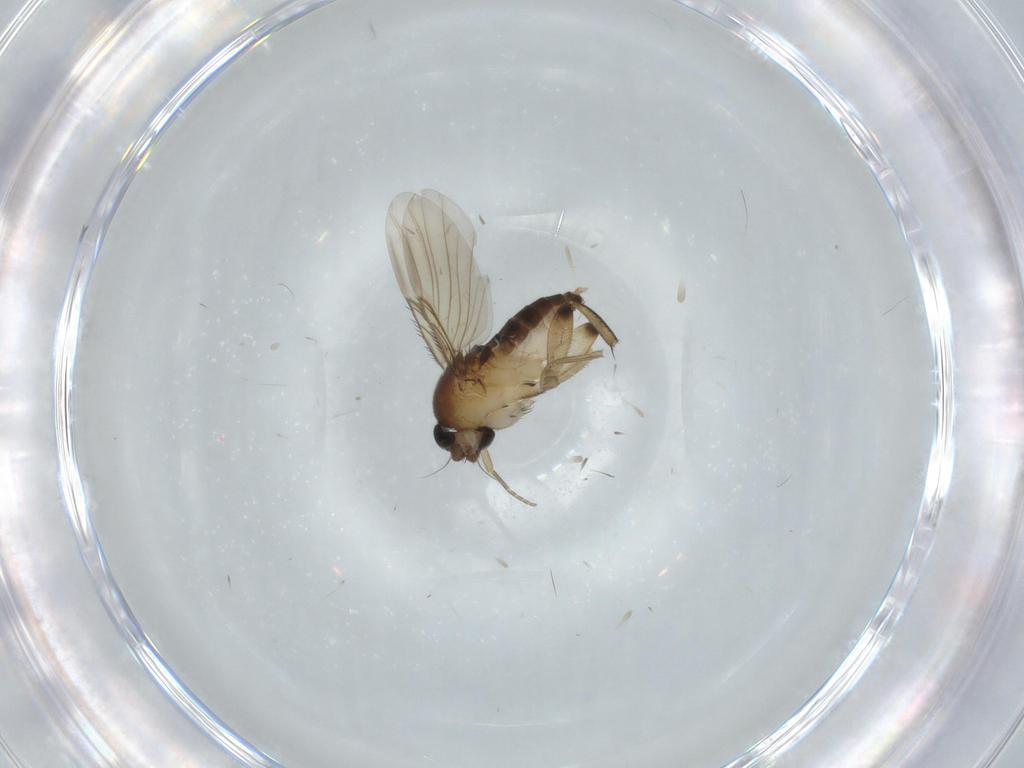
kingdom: Animalia
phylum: Arthropoda
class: Insecta
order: Diptera
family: Phoridae
